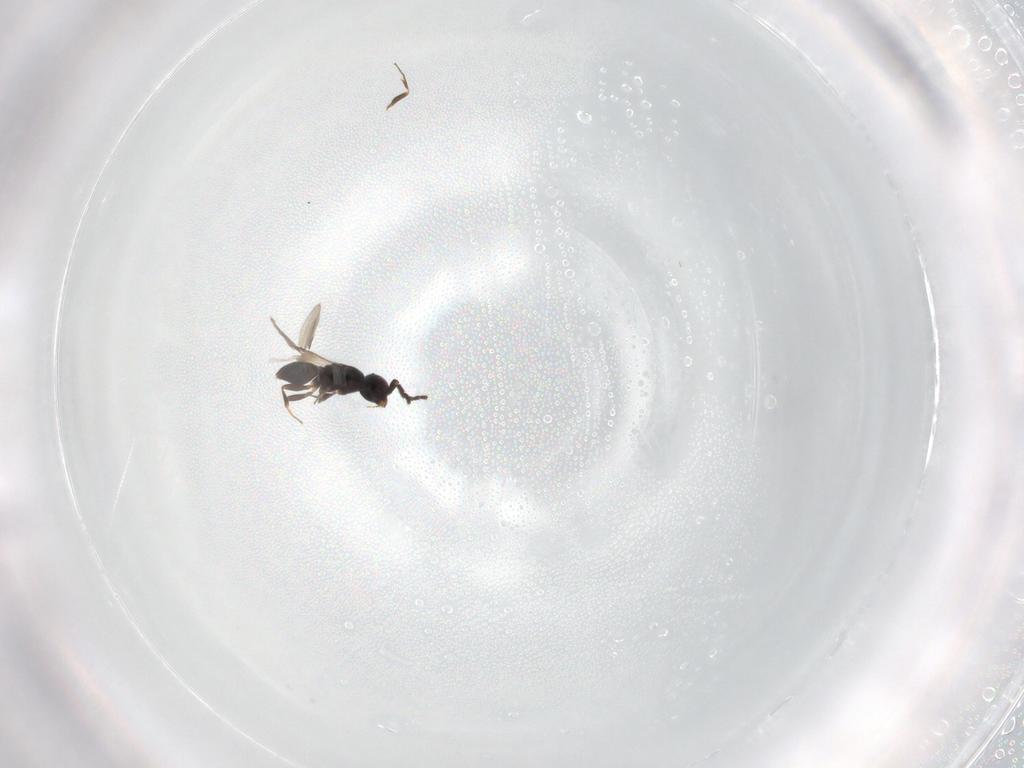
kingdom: Animalia
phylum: Arthropoda
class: Insecta
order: Hymenoptera
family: Encyrtidae
